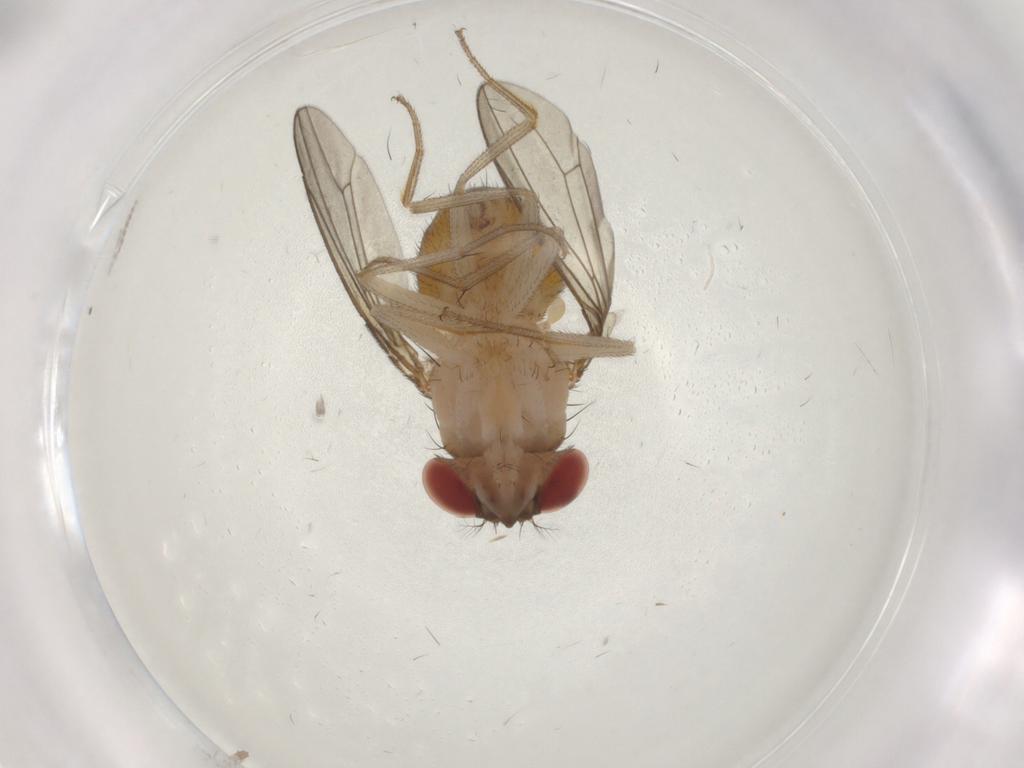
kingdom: Animalia
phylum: Arthropoda
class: Insecta
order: Diptera
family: Drosophilidae
